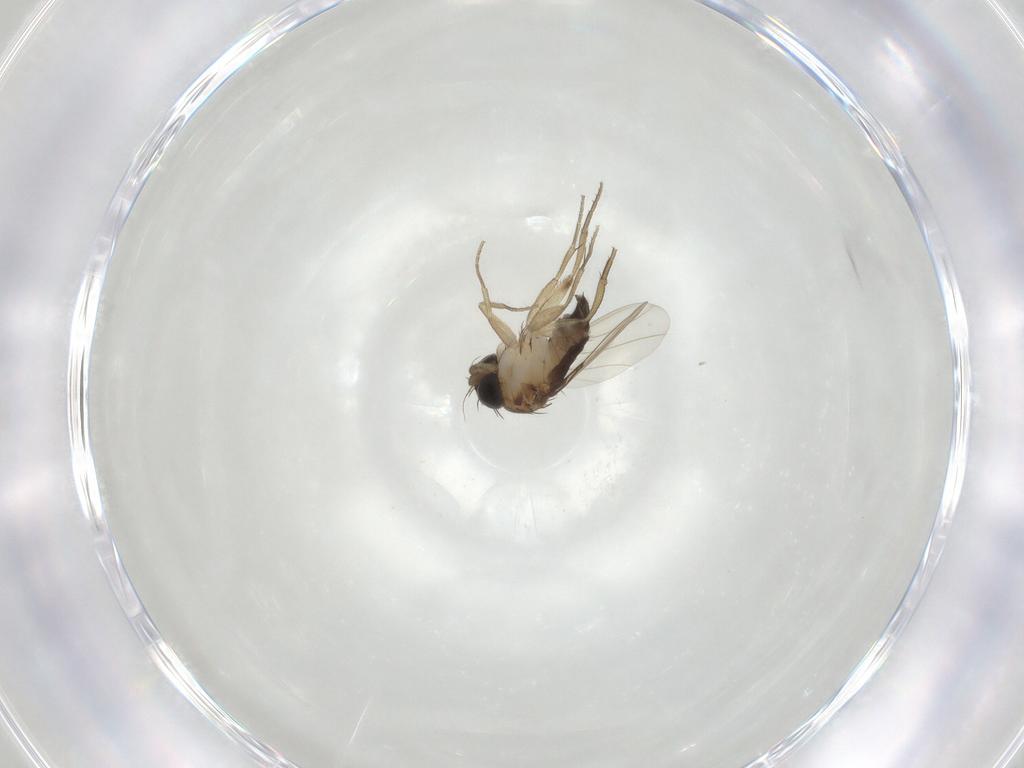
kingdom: Animalia
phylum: Arthropoda
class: Insecta
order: Diptera
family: Phoridae
